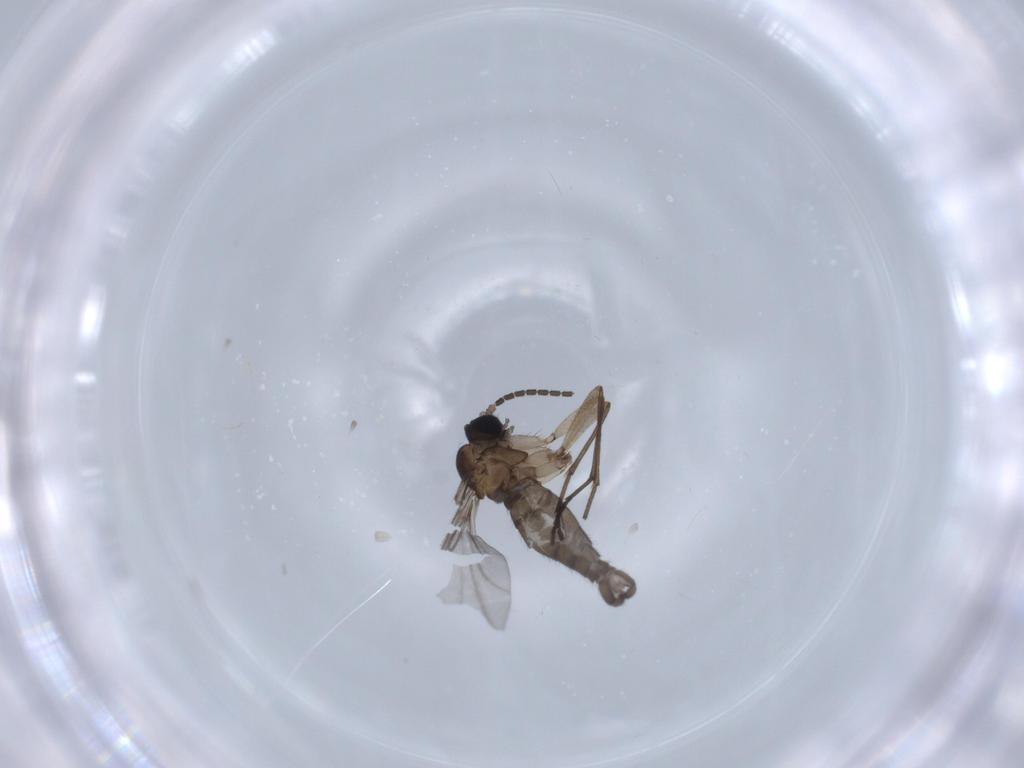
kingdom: Animalia
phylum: Arthropoda
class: Insecta
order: Diptera
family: Sciaridae
